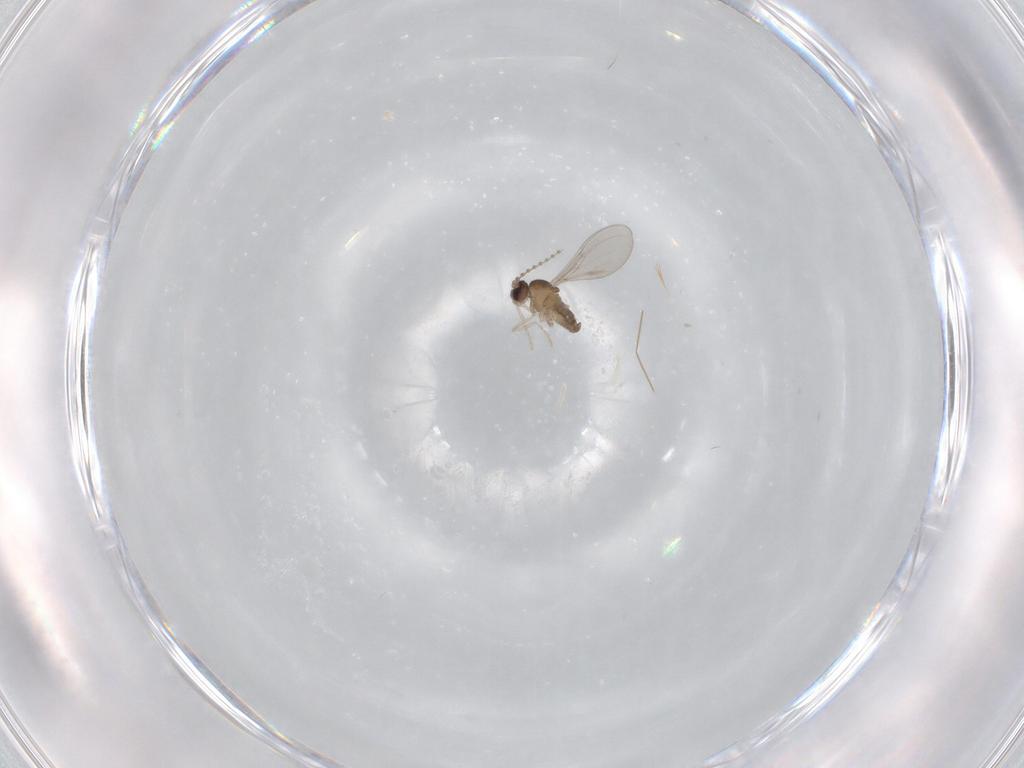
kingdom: Animalia
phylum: Arthropoda
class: Insecta
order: Diptera
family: Cecidomyiidae
